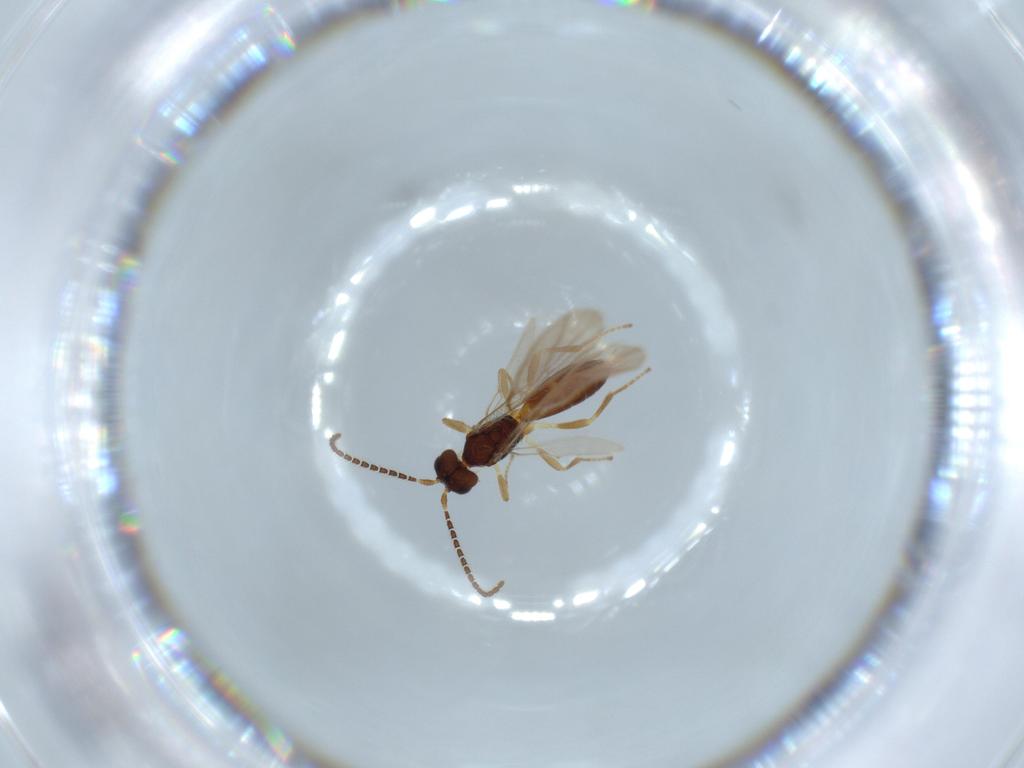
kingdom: Animalia
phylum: Arthropoda
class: Insecta
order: Hymenoptera
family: Braconidae
